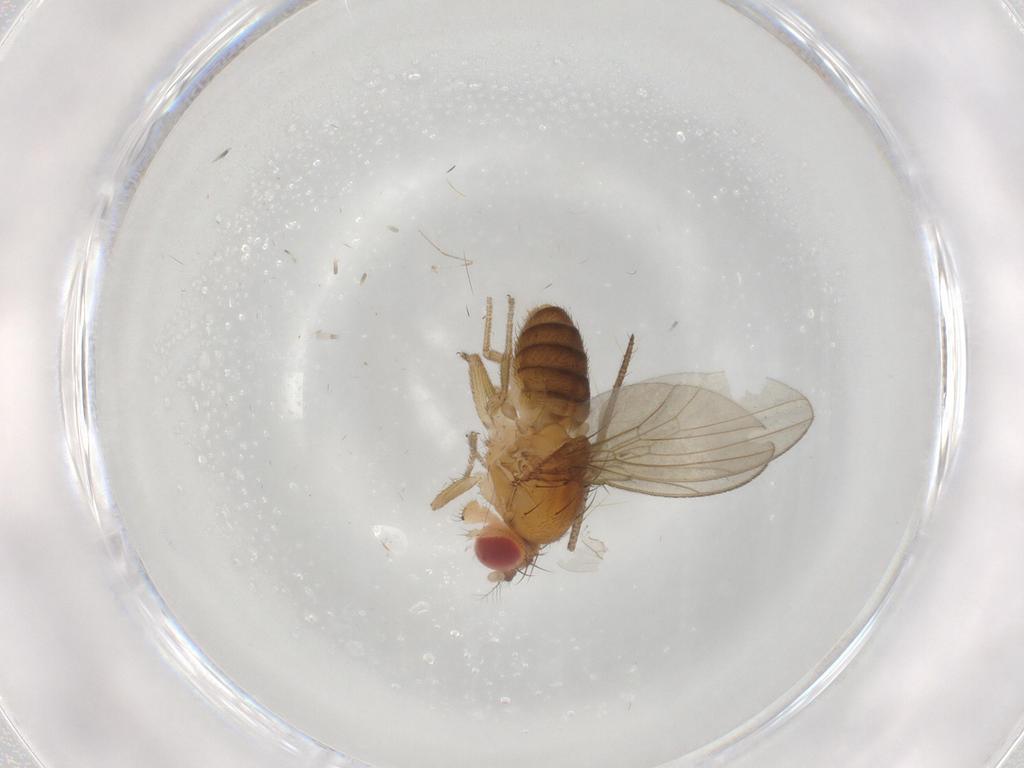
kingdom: Animalia
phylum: Arthropoda
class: Insecta
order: Diptera
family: Drosophilidae
